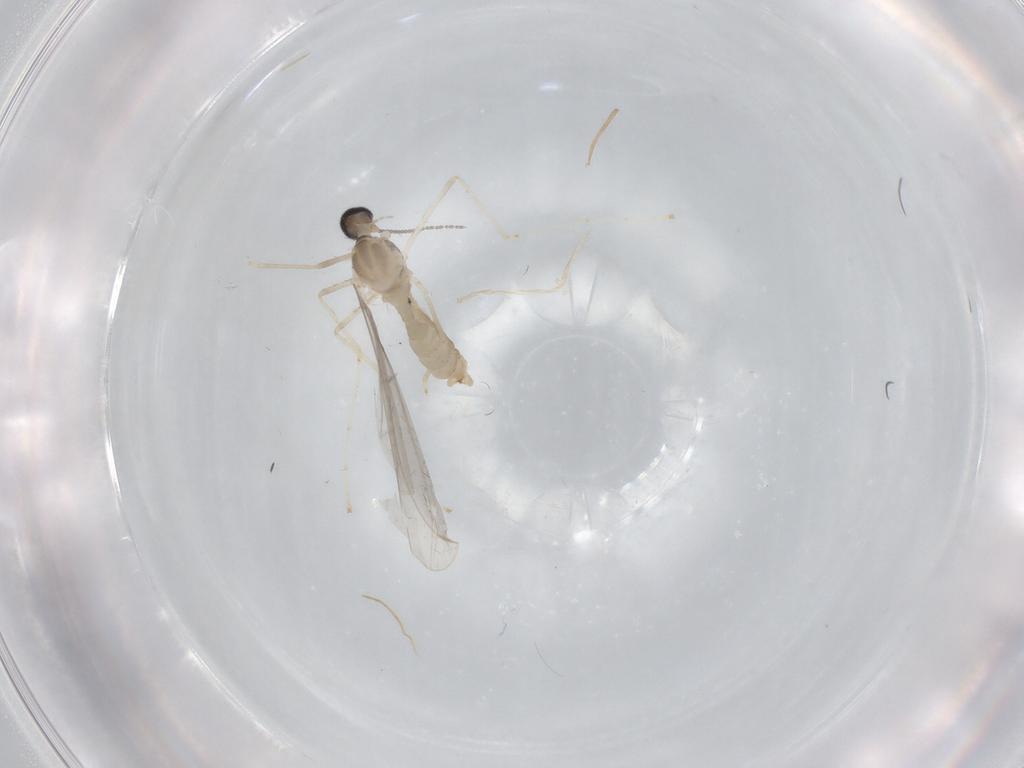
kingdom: Animalia
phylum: Arthropoda
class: Insecta
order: Diptera
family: Cecidomyiidae
